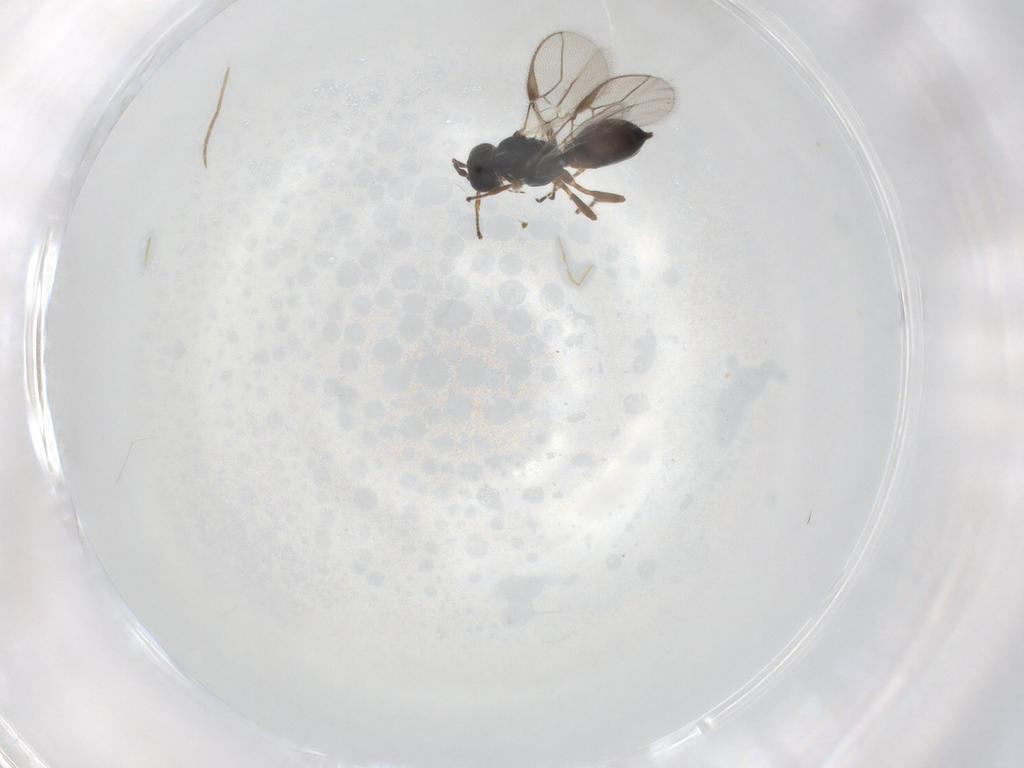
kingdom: Animalia
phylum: Arthropoda
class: Insecta
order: Hymenoptera
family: Braconidae
